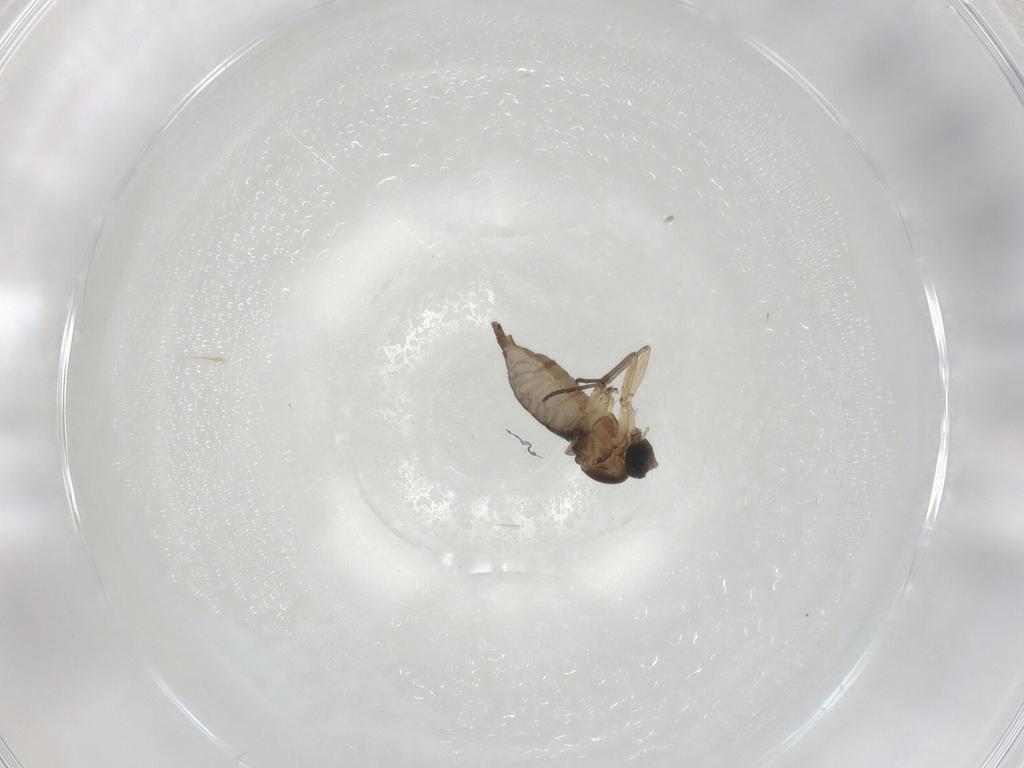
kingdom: Animalia
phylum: Arthropoda
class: Insecta
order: Diptera
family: Sciaridae
